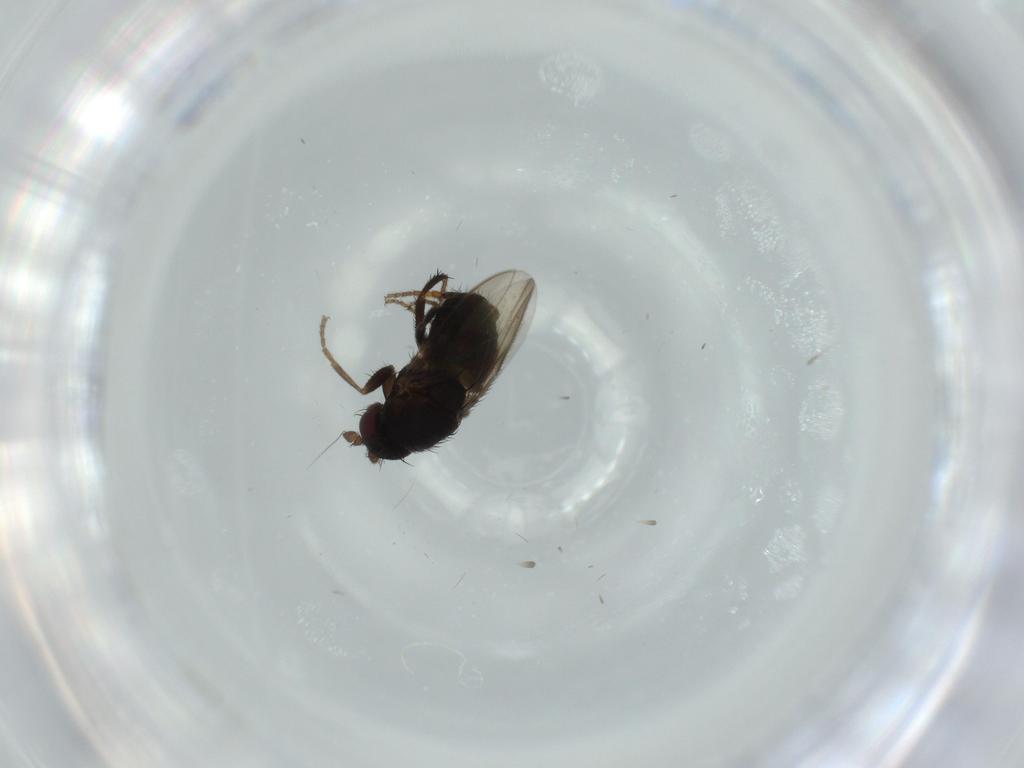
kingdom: Animalia
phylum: Arthropoda
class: Insecta
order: Diptera
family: Sphaeroceridae
